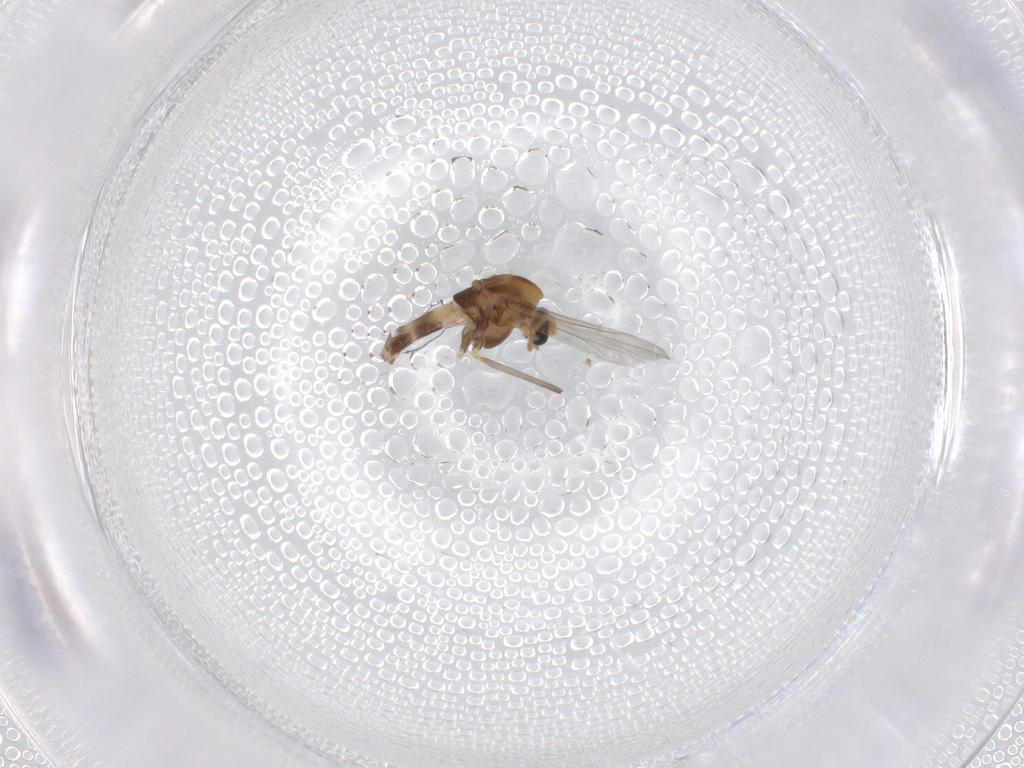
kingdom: Animalia
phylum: Arthropoda
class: Insecta
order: Diptera
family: Chironomidae
